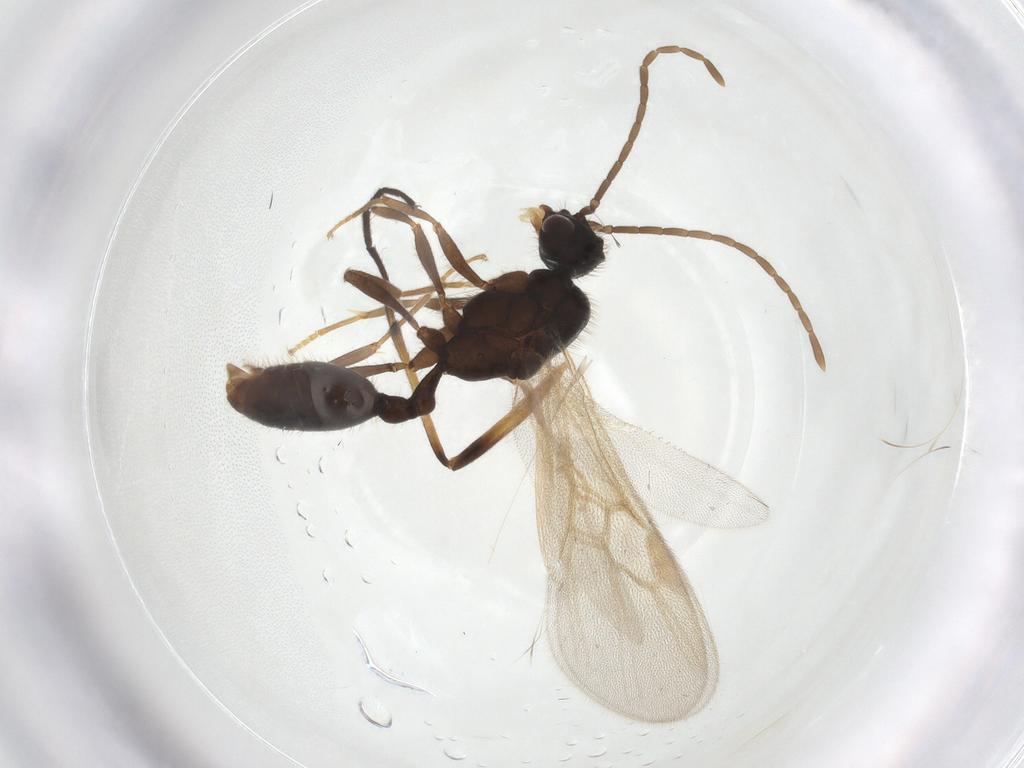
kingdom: Animalia
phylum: Arthropoda
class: Insecta
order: Hymenoptera
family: Formicidae
